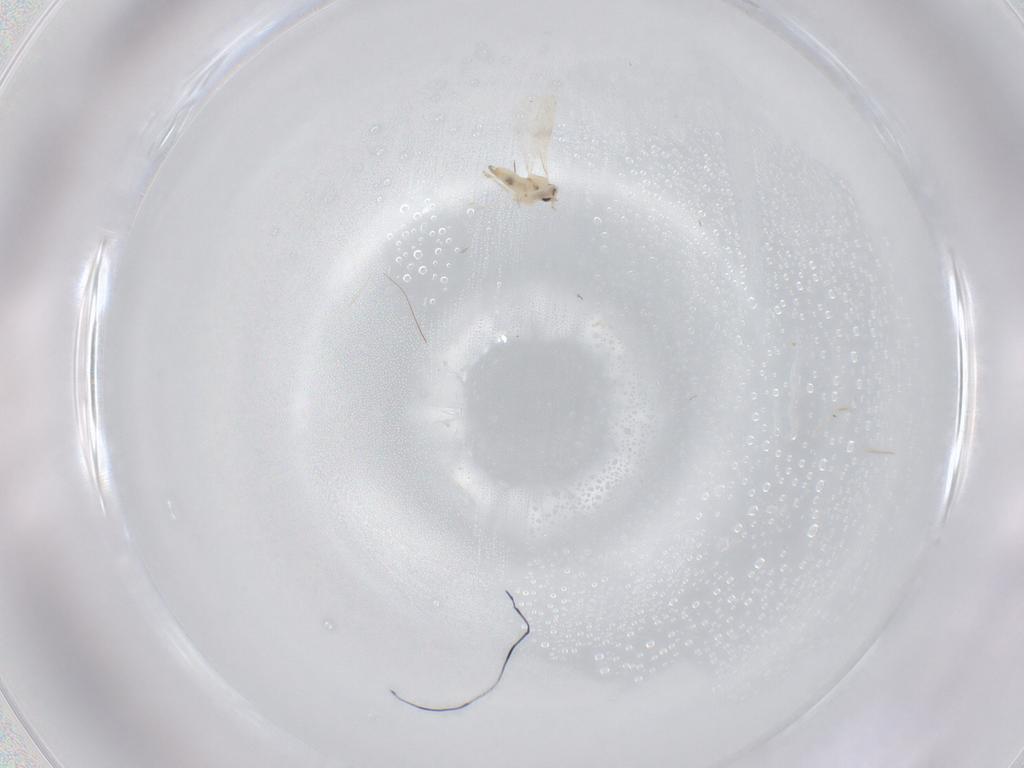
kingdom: Animalia
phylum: Arthropoda
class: Insecta
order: Diptera
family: Cecidomyiidae
